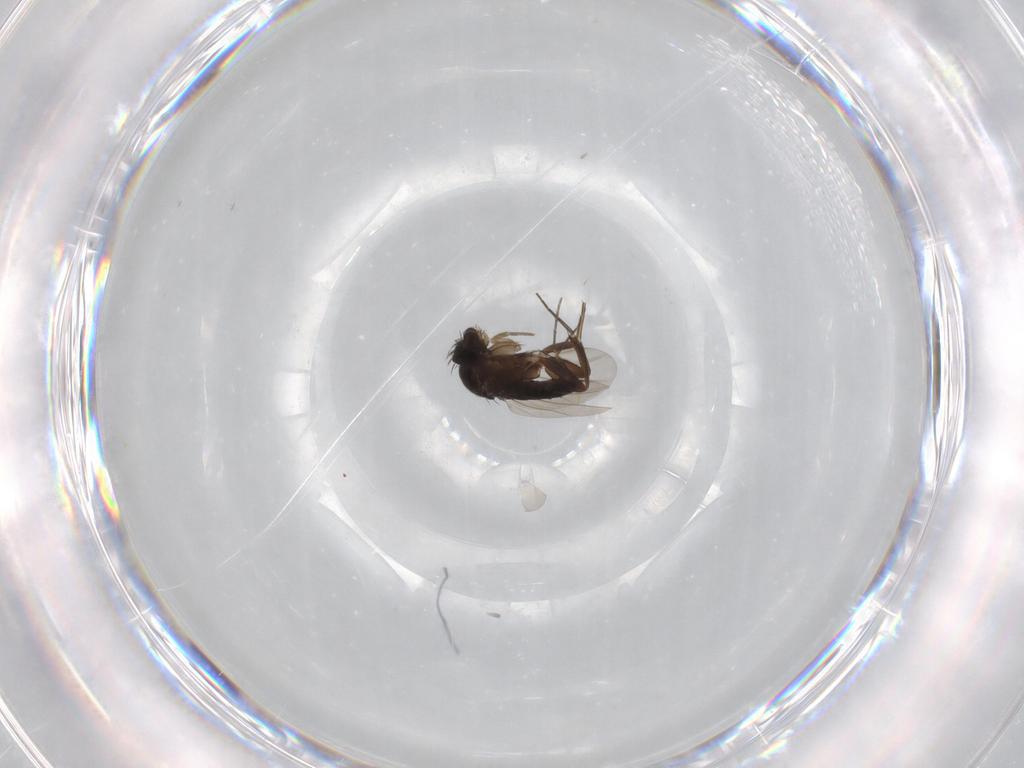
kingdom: Animalia
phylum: Arthropoda
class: Insecta
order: Diptera
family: Phoridae
